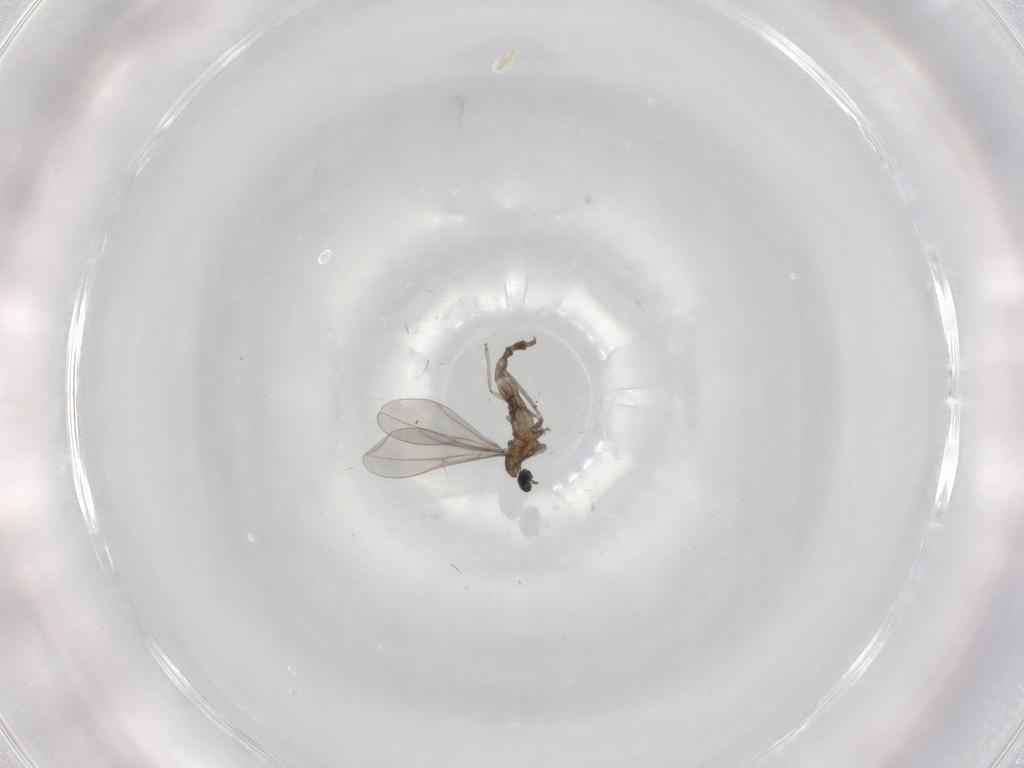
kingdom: Animalia
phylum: Arthropoda
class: Insecta
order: Diptera
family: Cecidomyiidae
